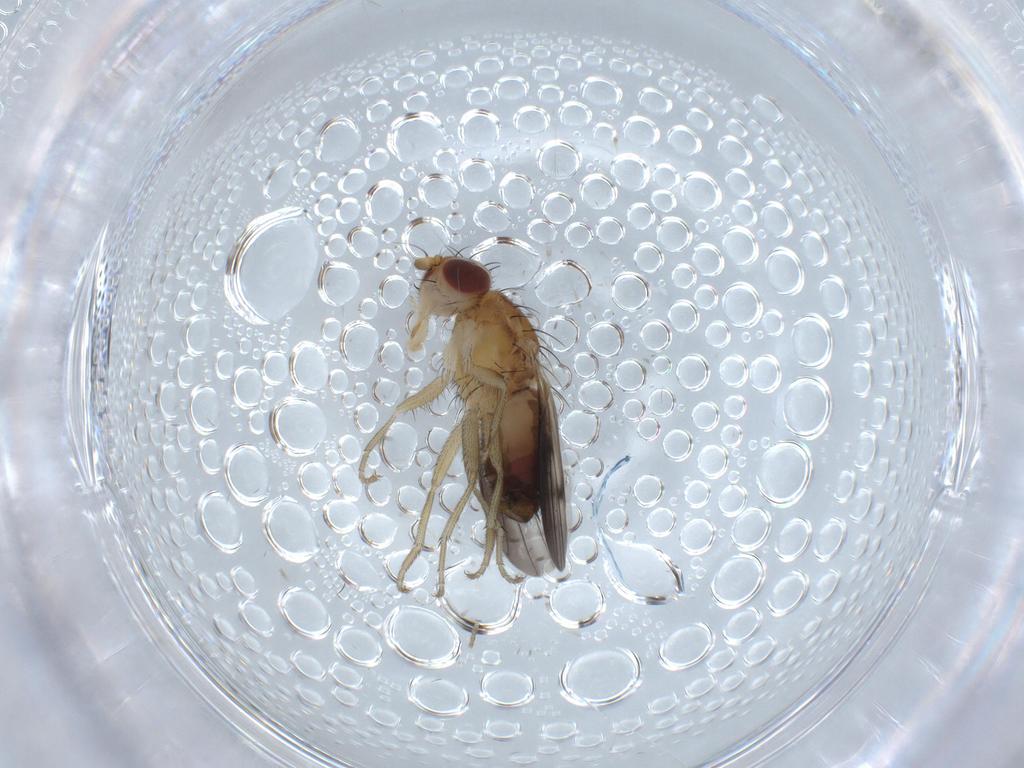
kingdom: Animalia
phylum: Arthropoda
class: Insecta
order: Diptera
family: Heleomyzidae
